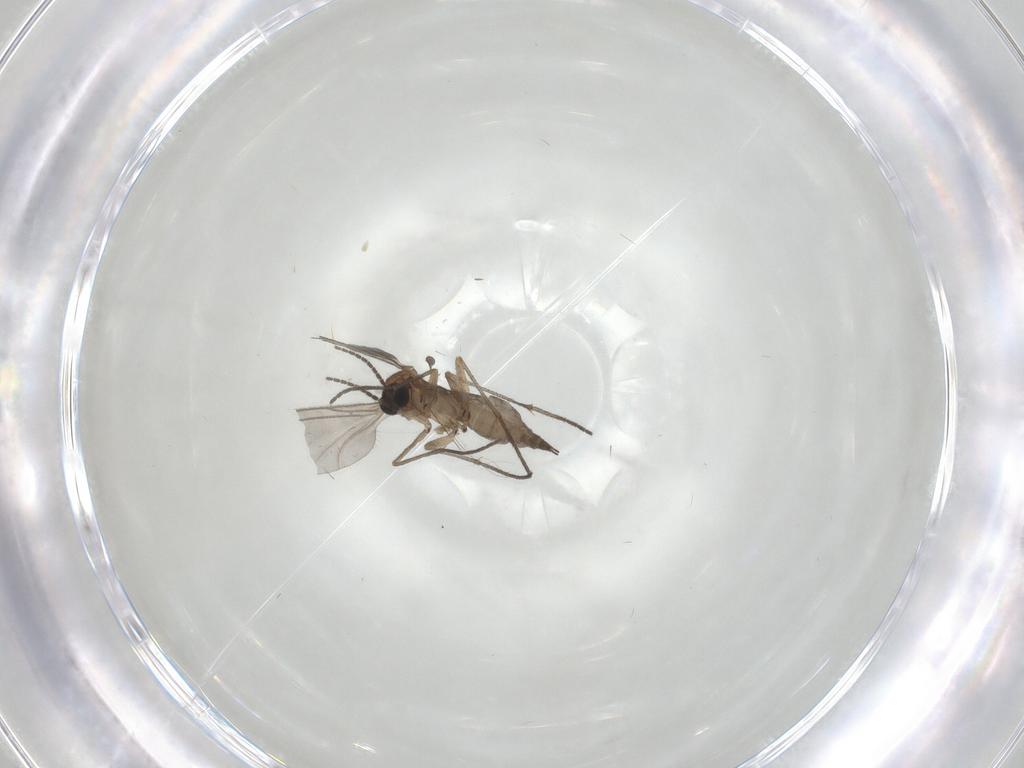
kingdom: Animalia
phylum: Arthropoda
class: Insecta
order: Diptera
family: Sciaridae
